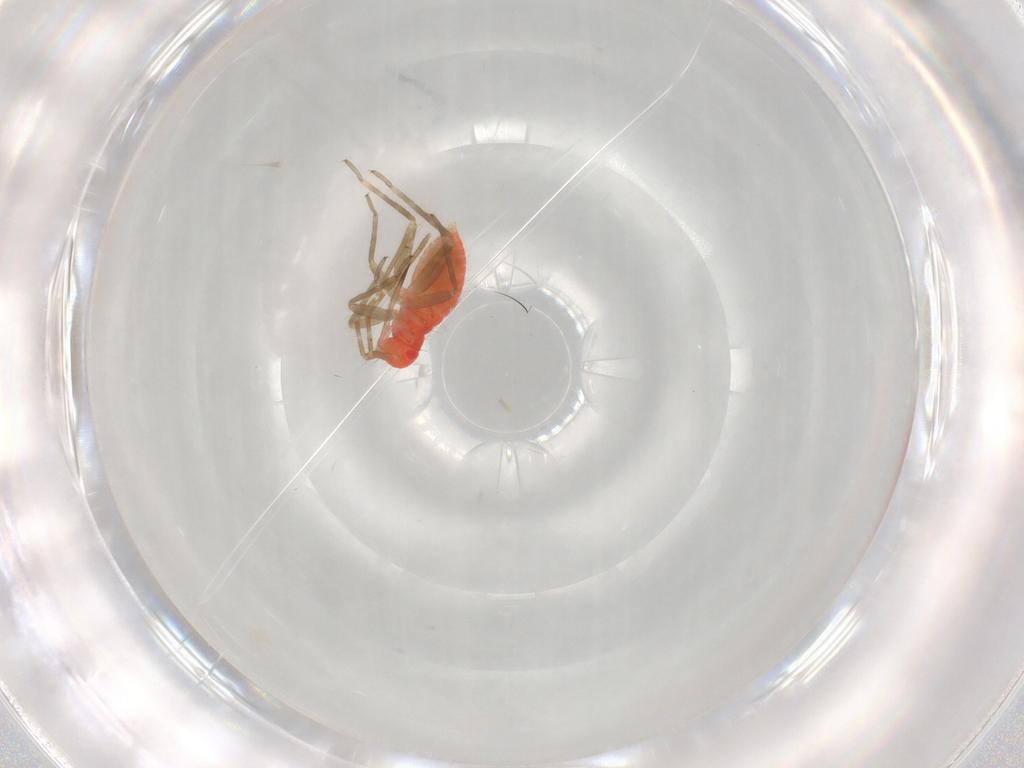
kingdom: Animalia
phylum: Arthropoda
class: Insecta
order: Hemiptera
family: Miridae
